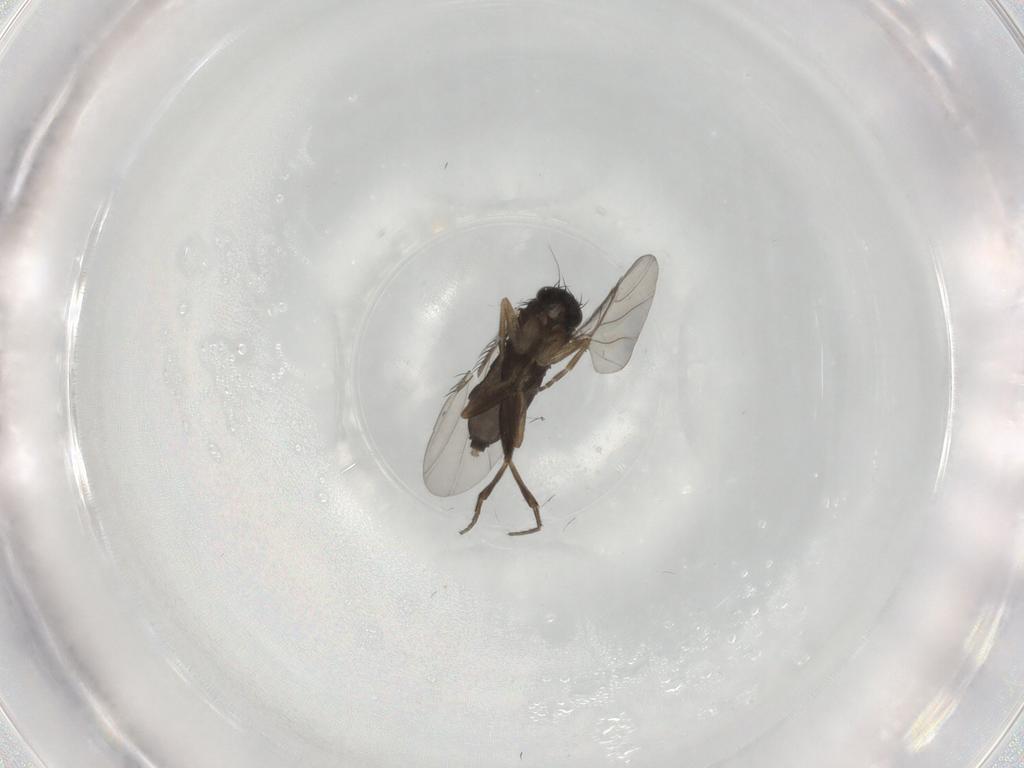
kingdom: Animalia
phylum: Arthropoda
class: Insecta
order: Diptera
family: Phoridae
